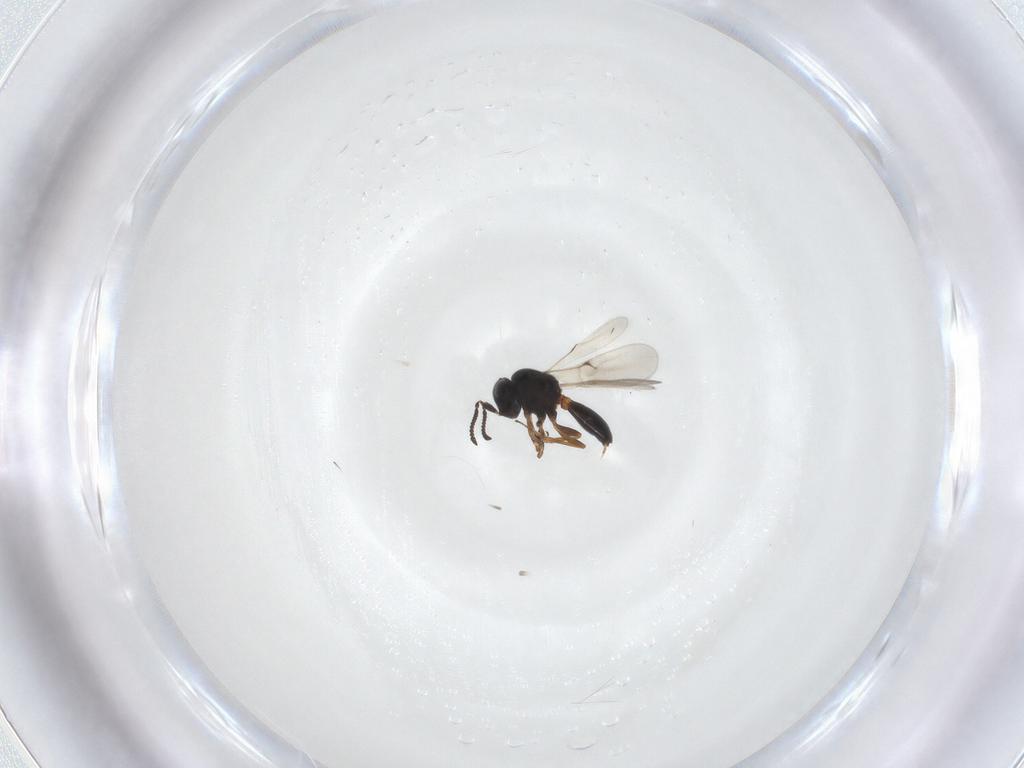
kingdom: Animalia
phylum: Arthropoda
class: Insecta
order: Hymenoptera
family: Scelionidae
